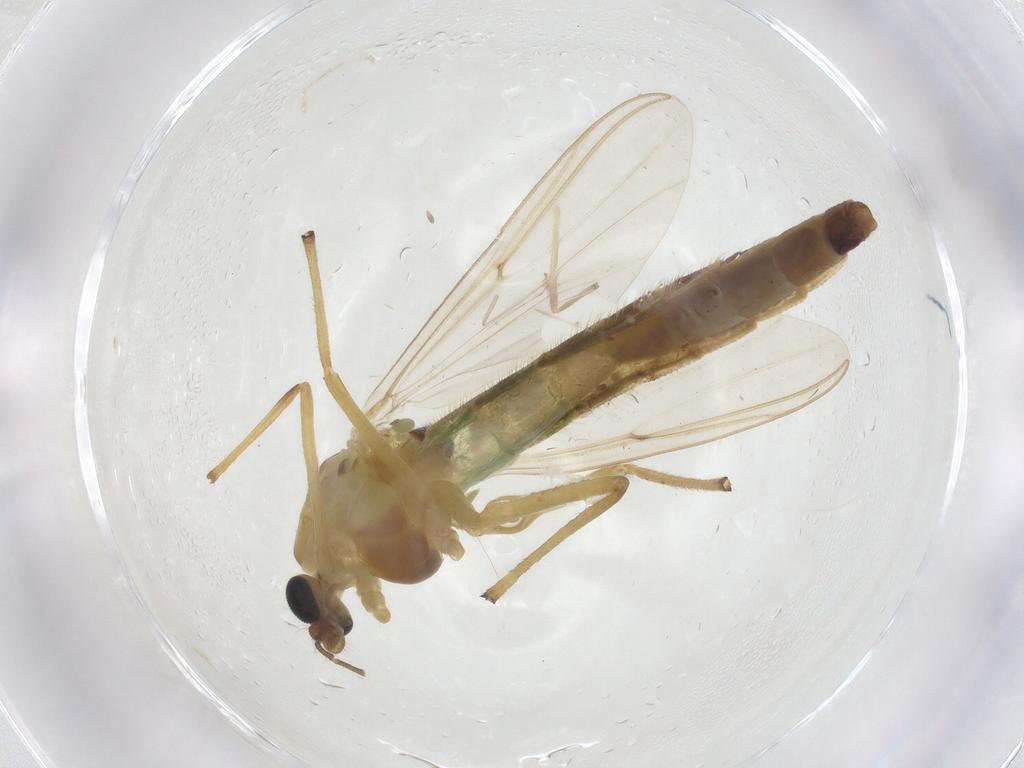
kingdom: Animalia
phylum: Arthropoda
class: Insecta
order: Diptera
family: Chironomidae
